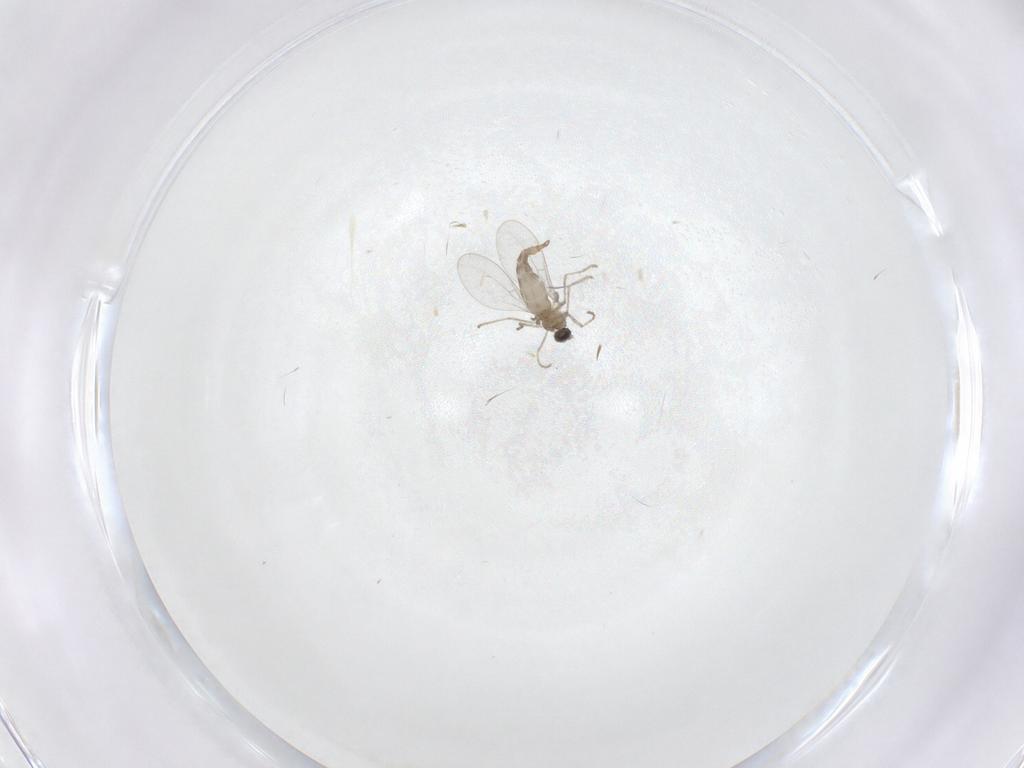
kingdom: Animalia
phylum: Arthropoda
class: Insecta
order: Diptera
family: Cecidomyiidae
